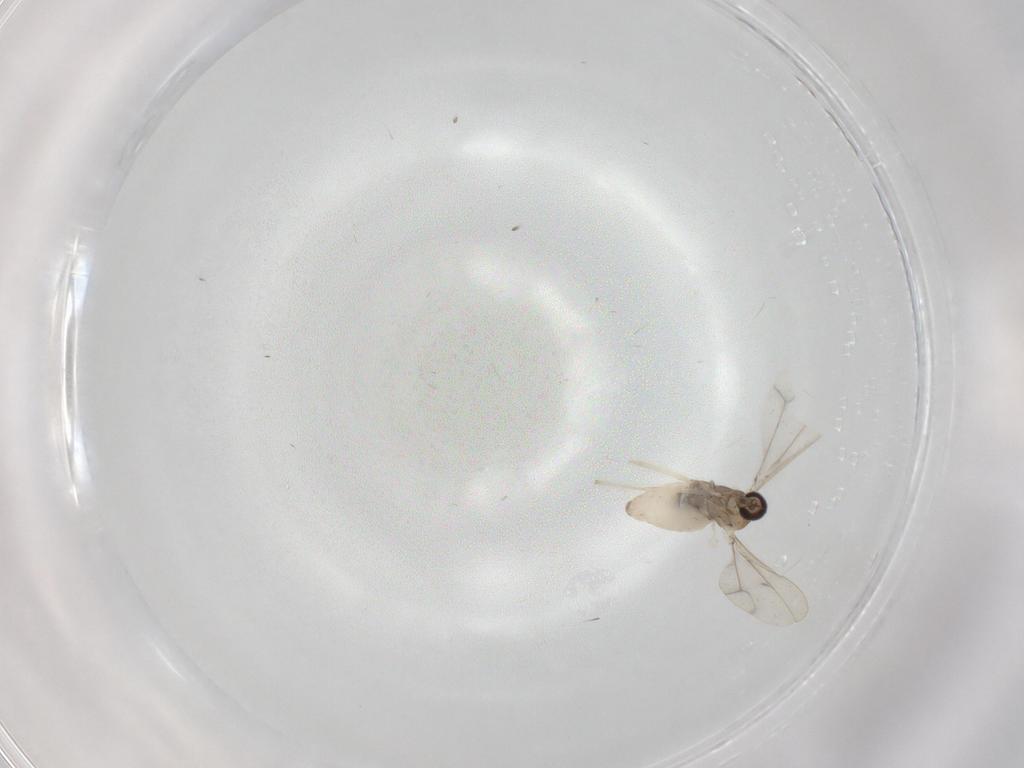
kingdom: Animalia
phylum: Arthropoda
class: Insecta
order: Diptera
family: Cecidomyiidae
